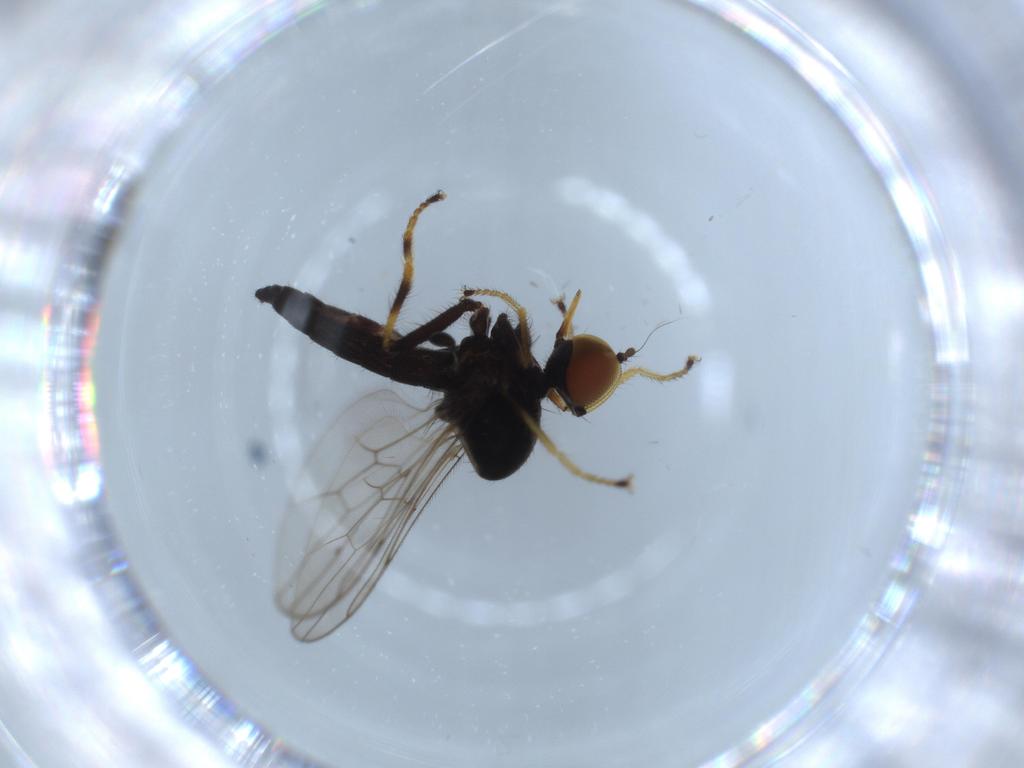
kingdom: Animalia
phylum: Arthropoda
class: Insecta
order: Diptera
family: Hybotidae
